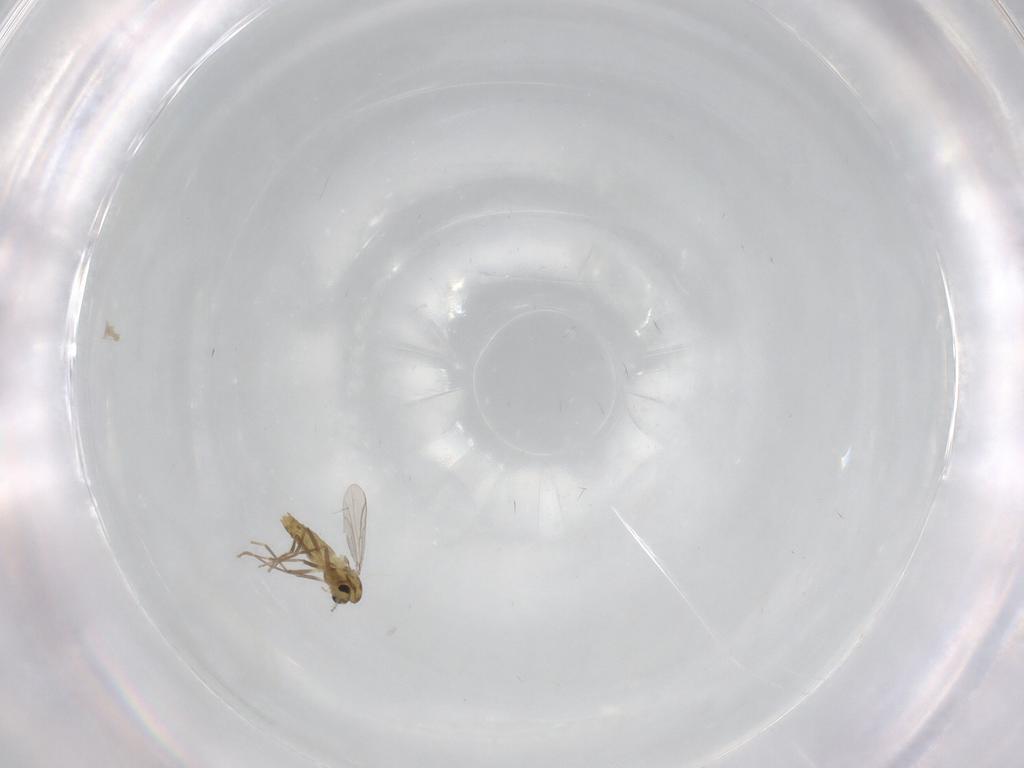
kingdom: Animalia
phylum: Arthropoda
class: Insecta
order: Diptera
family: Chironomidae
